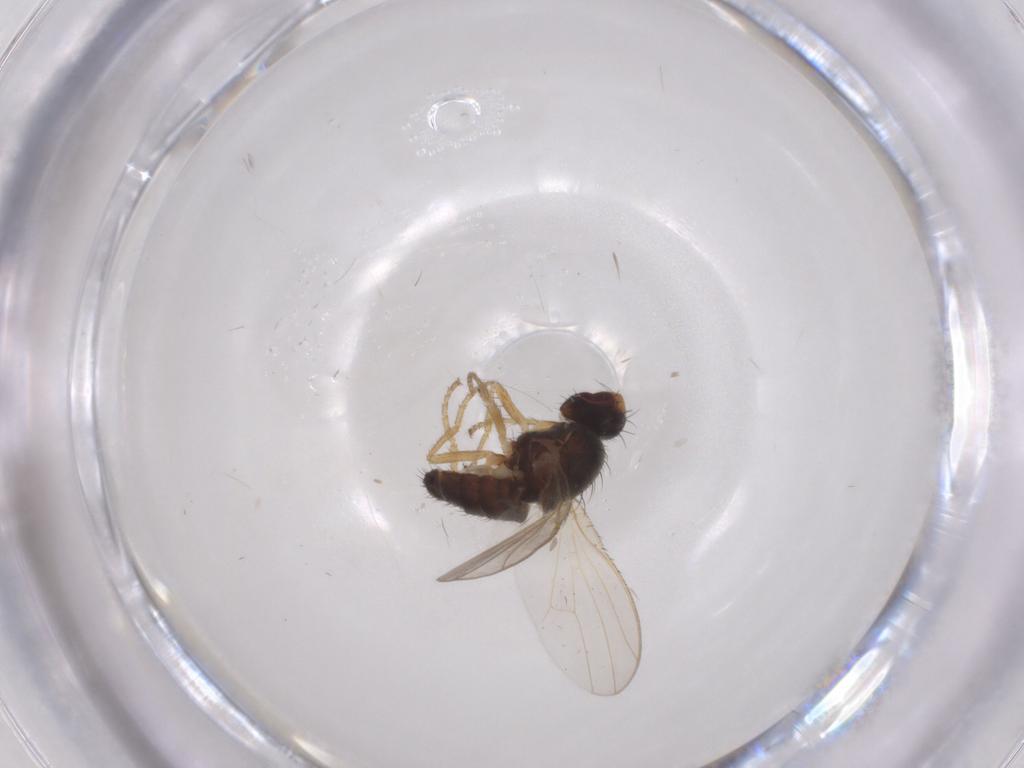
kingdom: Animalia
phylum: Arthropoda
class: Insecta
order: Diptera
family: Heleomyzidae
